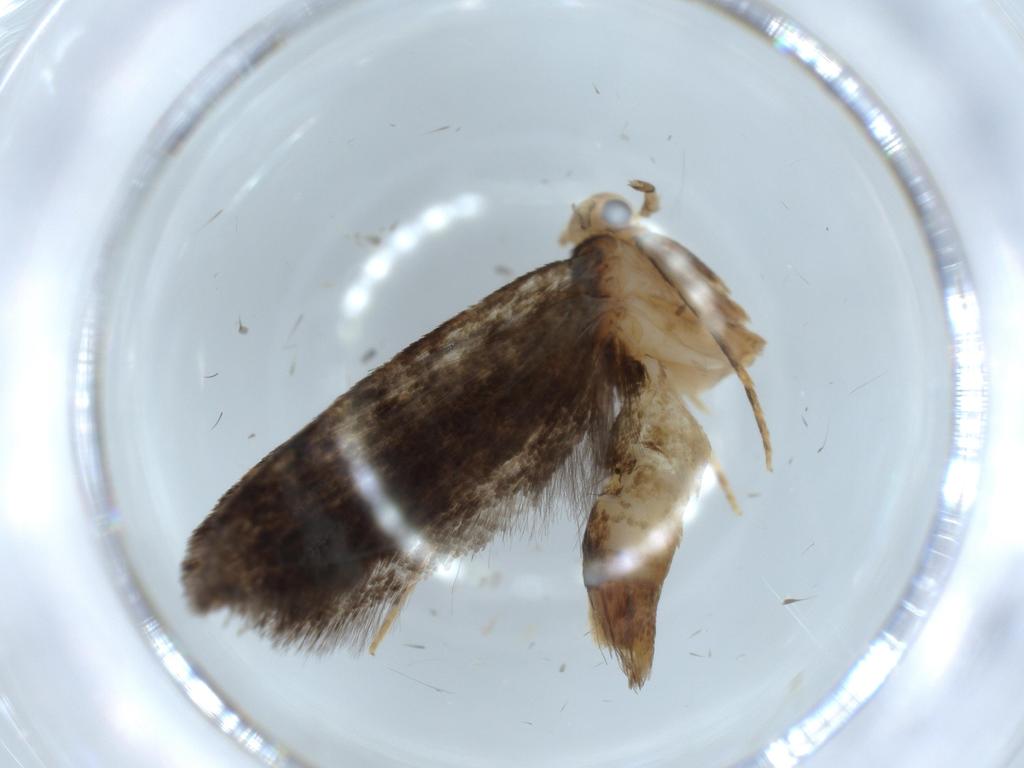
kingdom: Animalia
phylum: Arthropoda
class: Insecta
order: Lepidoptera
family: Tineidae
